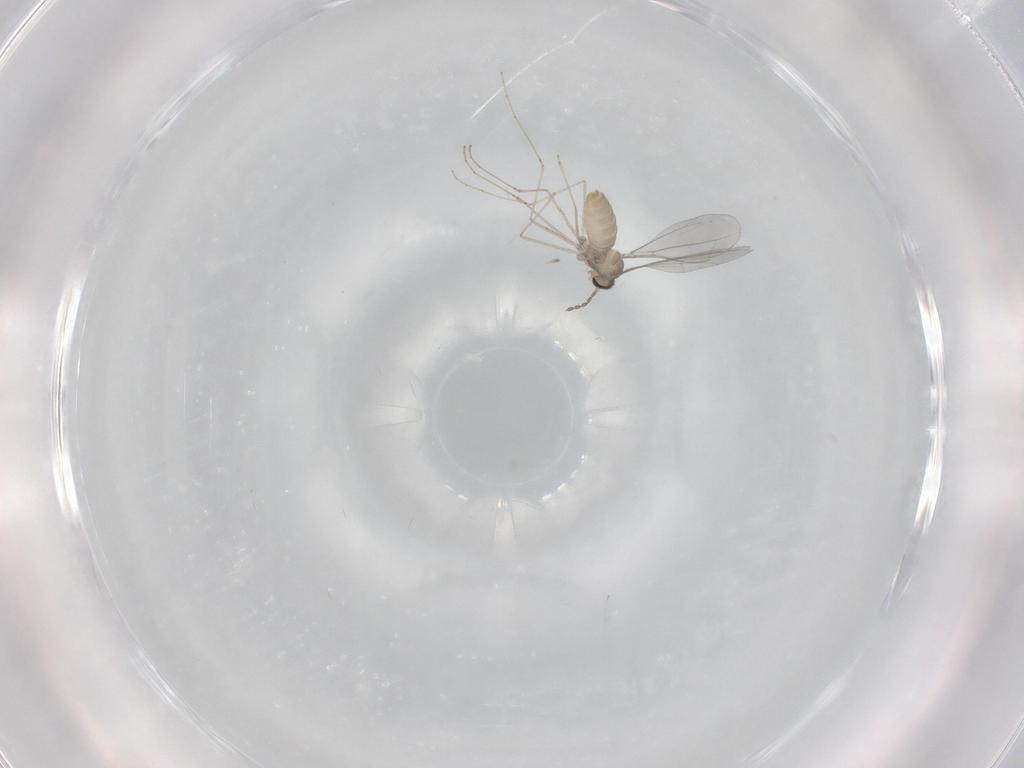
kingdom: Animalia
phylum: Arthropoda
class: Insecta
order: Diptera
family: Cecidomyiidae
